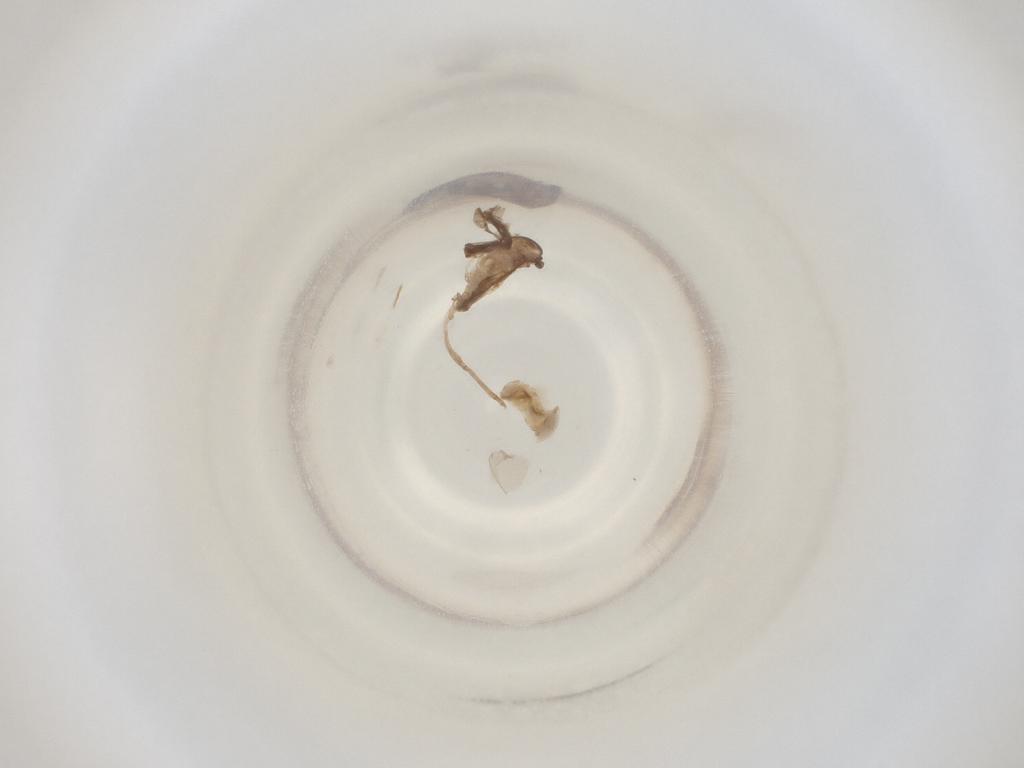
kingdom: Animalia
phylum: Arthropoda
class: Insecta
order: Diptera
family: Cecidomyiidae
